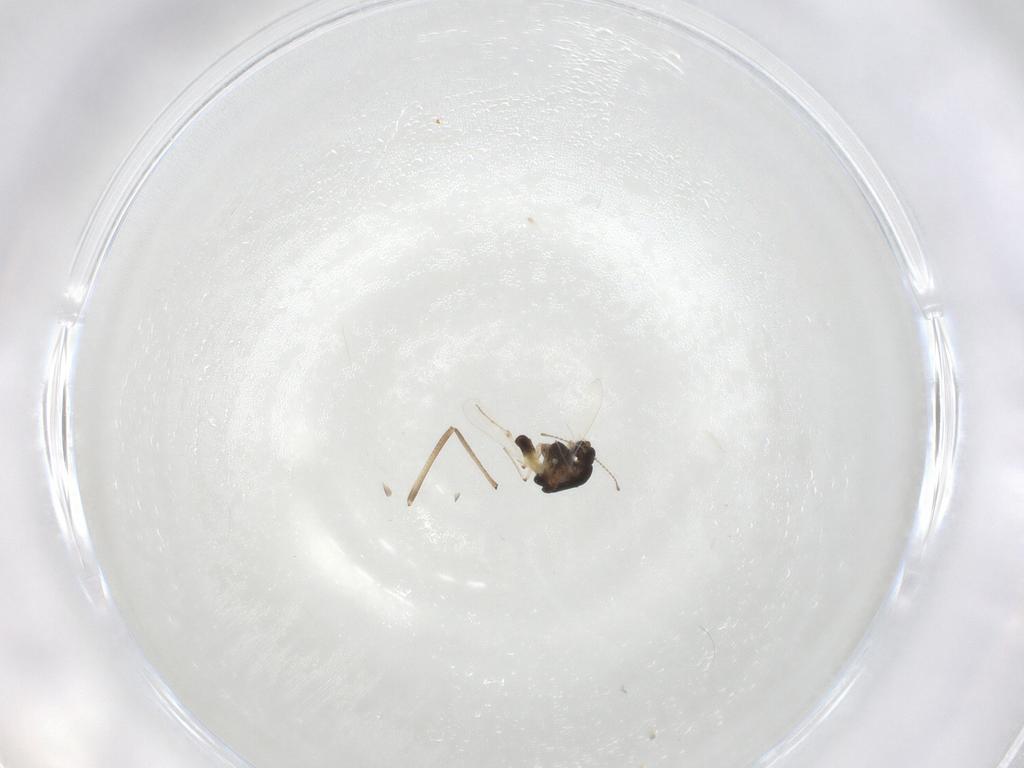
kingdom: Animalia
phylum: Arthropoda
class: Insecta
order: Diptera
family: Chironomidae
